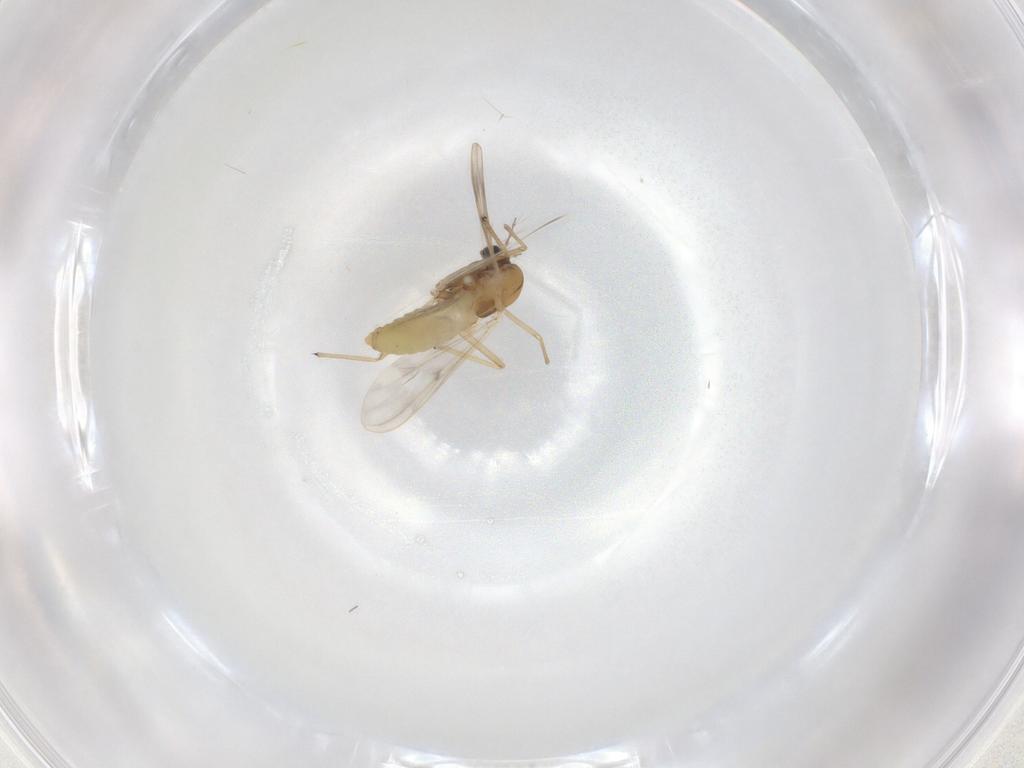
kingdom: Animalia
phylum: Arthropoda
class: Insecta
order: Diptera
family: Chironomidae
